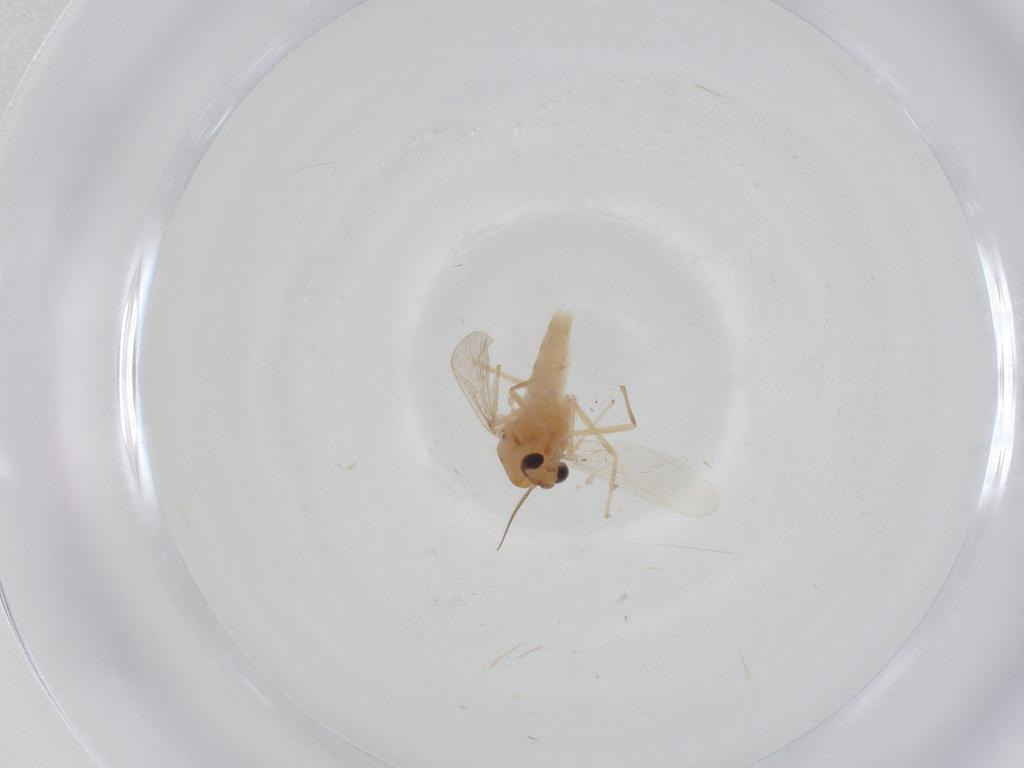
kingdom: Animalia
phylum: Arthropoda
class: Insecta
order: Diptera
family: Chironomidae
